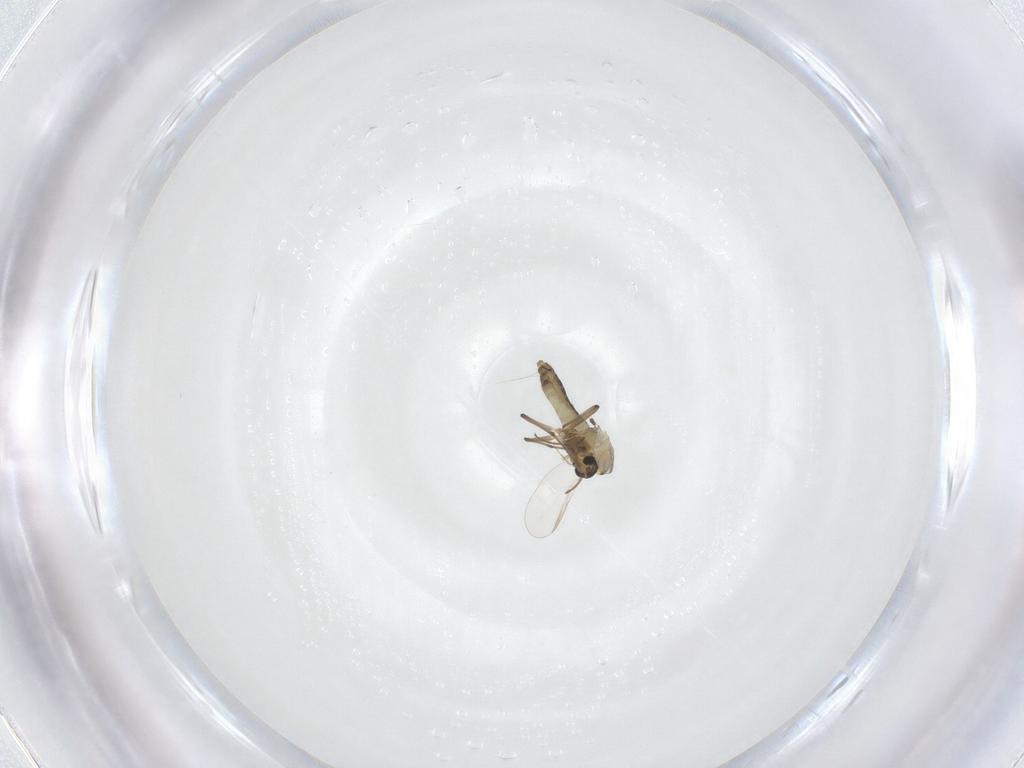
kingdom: Animalia
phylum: Arthropoda
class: Insecta
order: Diptera
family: Chironomidae
